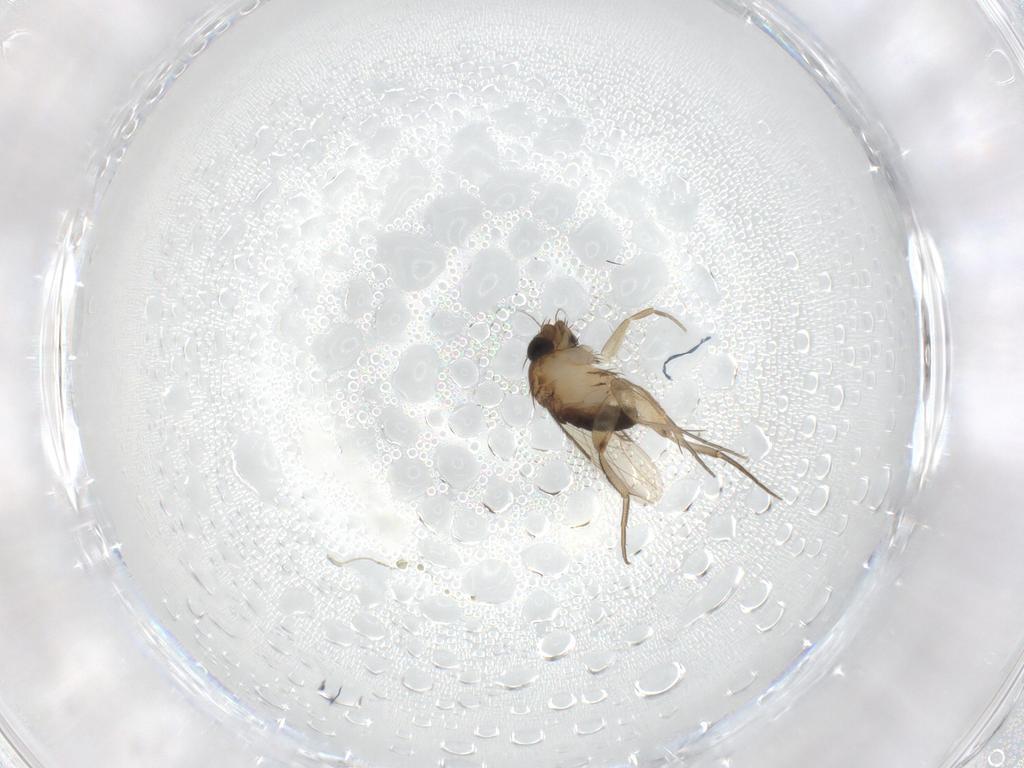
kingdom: Animalia
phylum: Arthropoda
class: Insecta
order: Diptera
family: Phoridae
